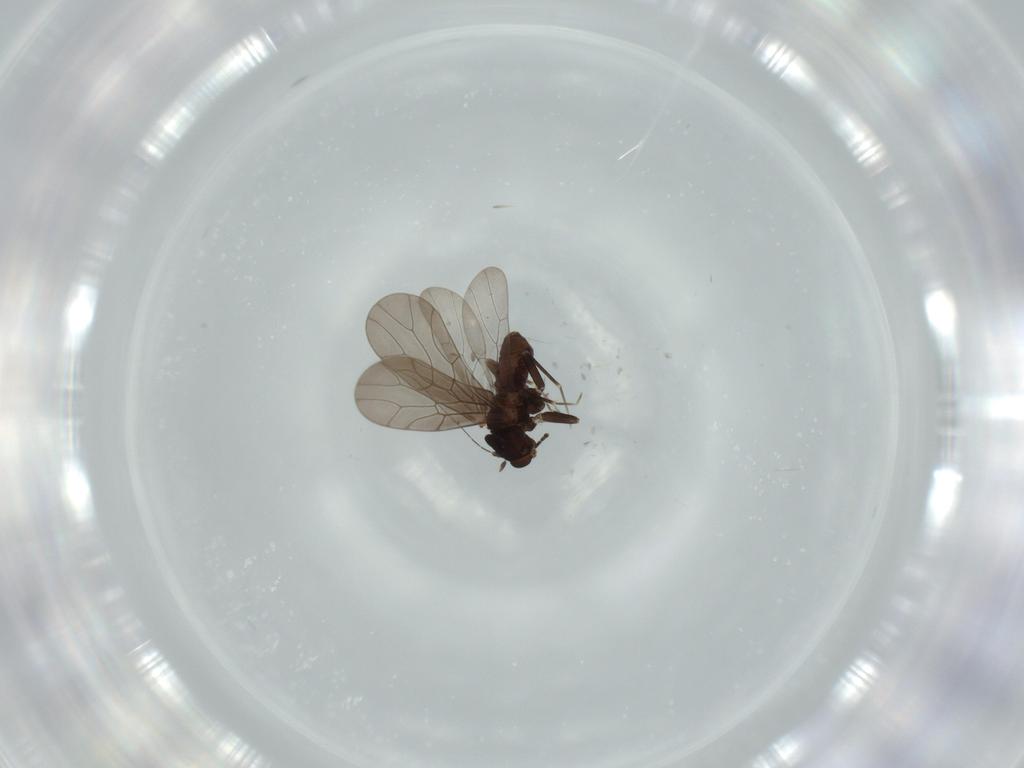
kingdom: Animalia
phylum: Arthropoda
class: Insecta
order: Psocodea
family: Lepidopsocidae
